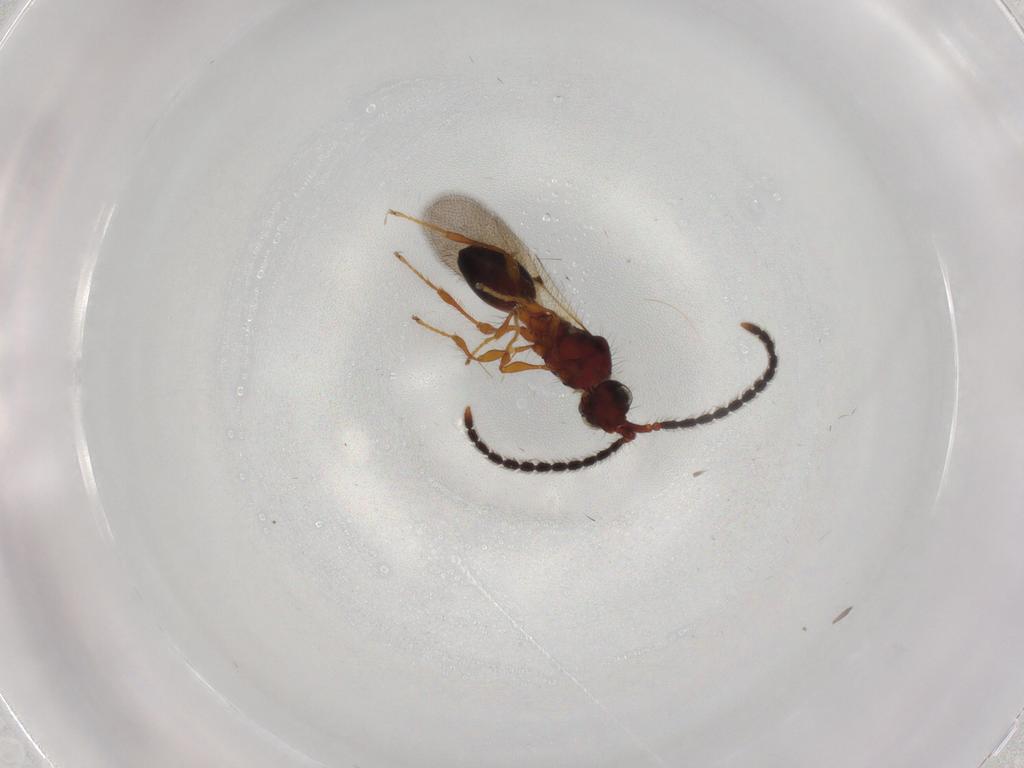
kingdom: Animalia
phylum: Arthropoda
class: Insecta
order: Hymenoptera
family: Diapriidae
